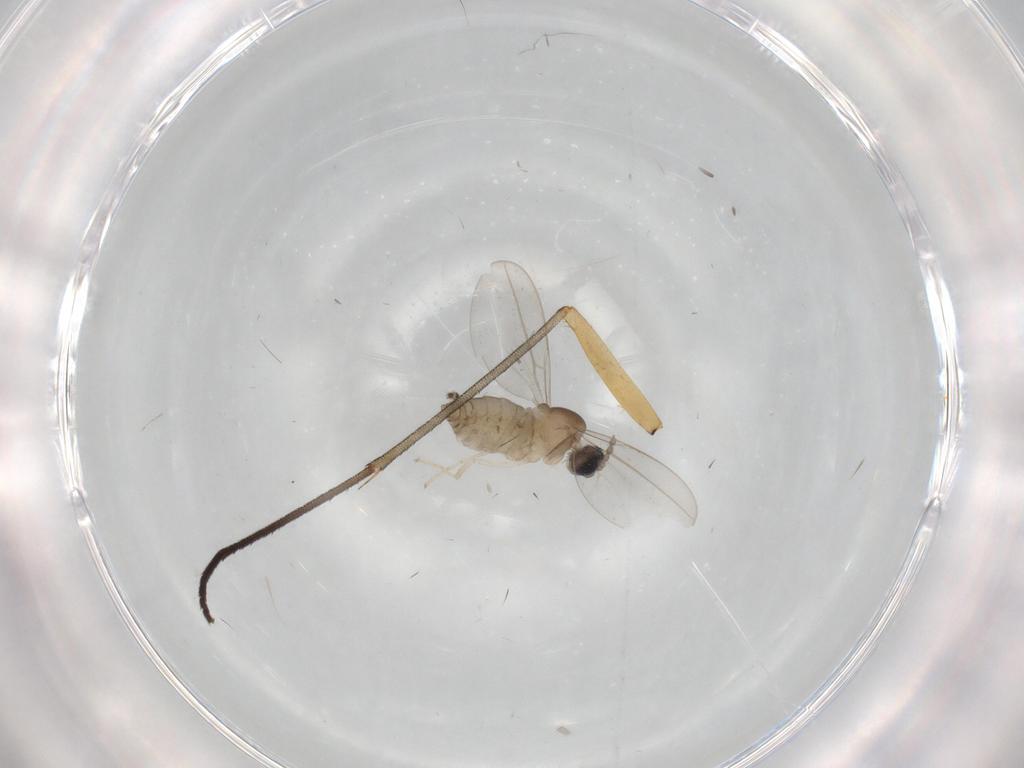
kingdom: Animalia
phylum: Arthropoda
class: Insecta
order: Diptera
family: Cecidomyiidae
